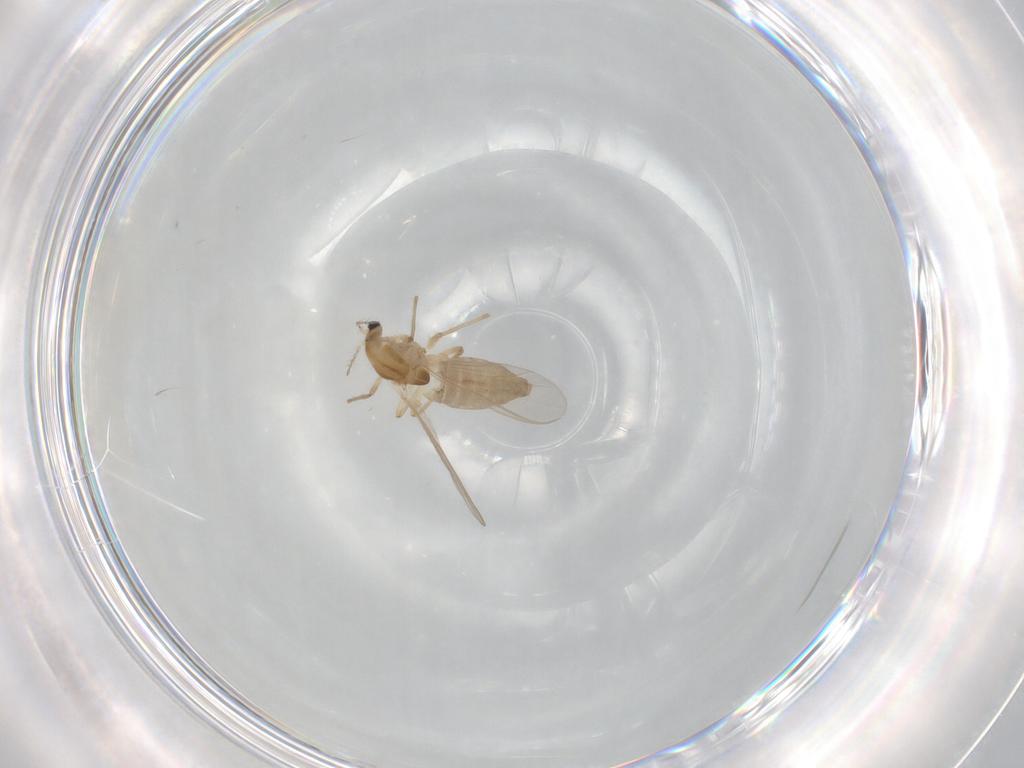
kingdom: Animalia
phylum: Arthropoda
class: Insecta
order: Diptera
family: Chironomidae
